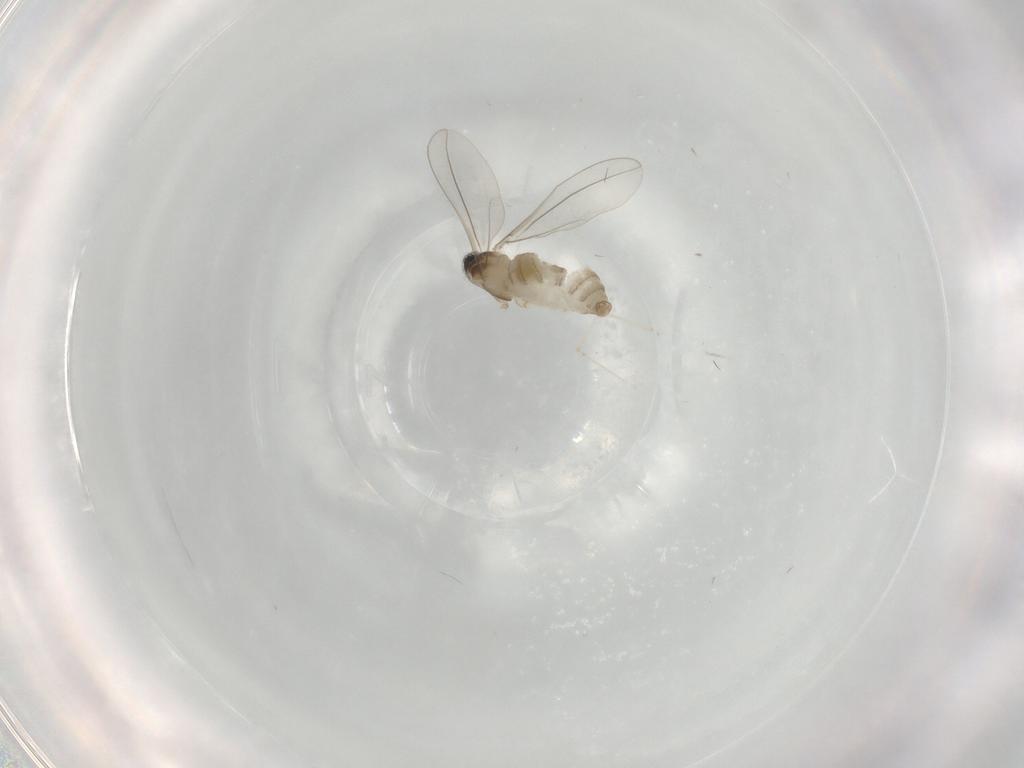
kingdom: Animalia
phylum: Arthropoda
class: Insecta
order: Diptera
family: Cecidomyiidae
